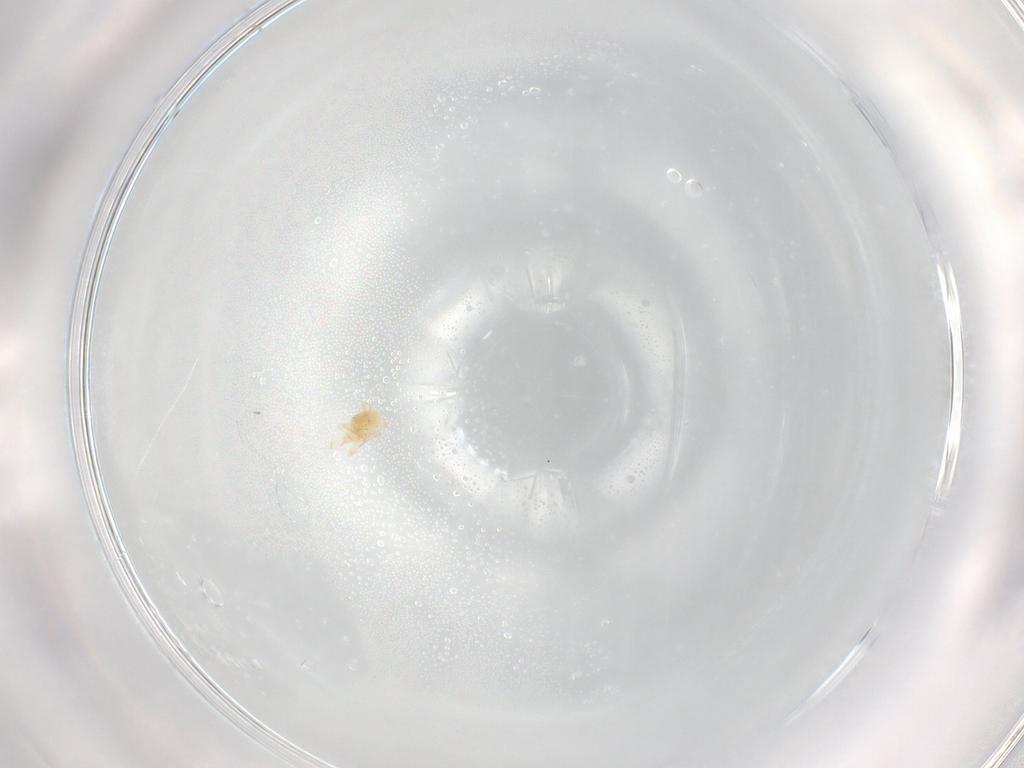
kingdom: Animalia
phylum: Arthropoda
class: Arachnida
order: Trombidiformes
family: Cunaxidae
